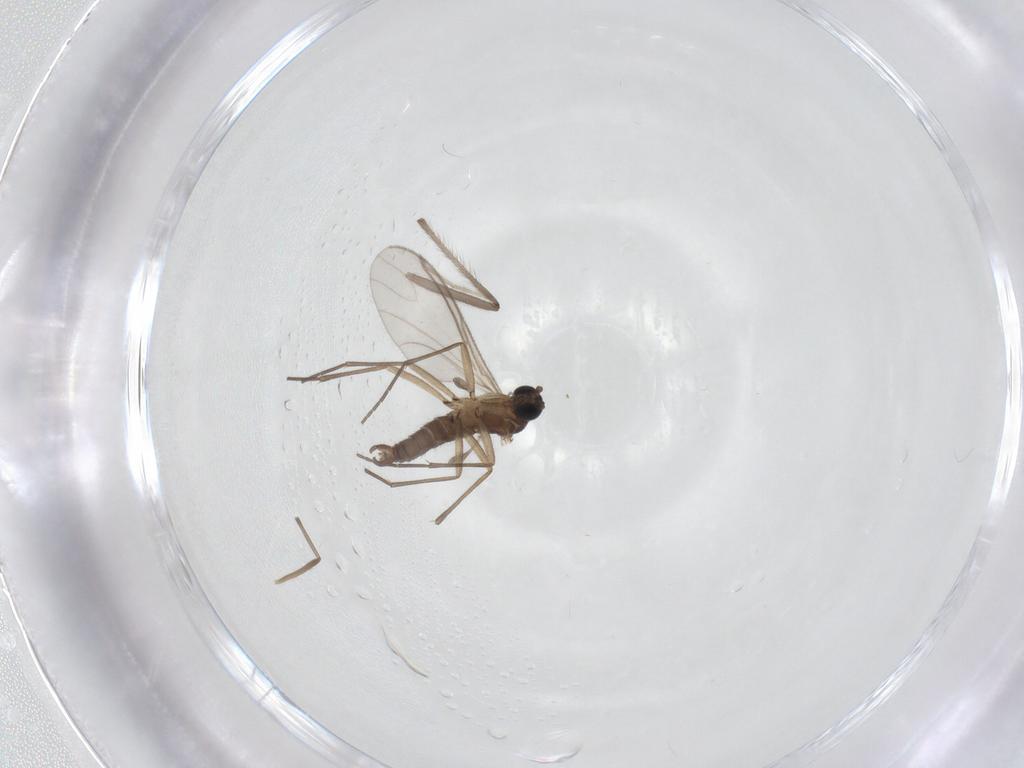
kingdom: Animalia
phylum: Arthropoda
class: Insecta
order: Diptera
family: Chironomidae
